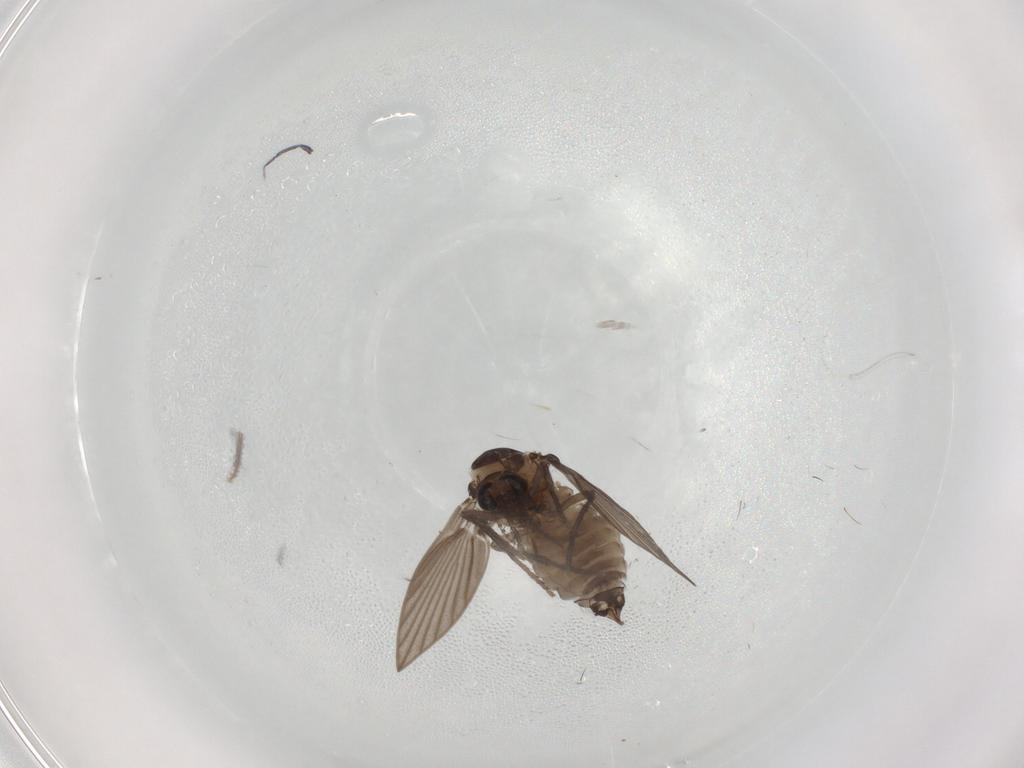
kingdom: Animalia
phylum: Arthropoda
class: Insecta
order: Diptera
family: Psychodidae
